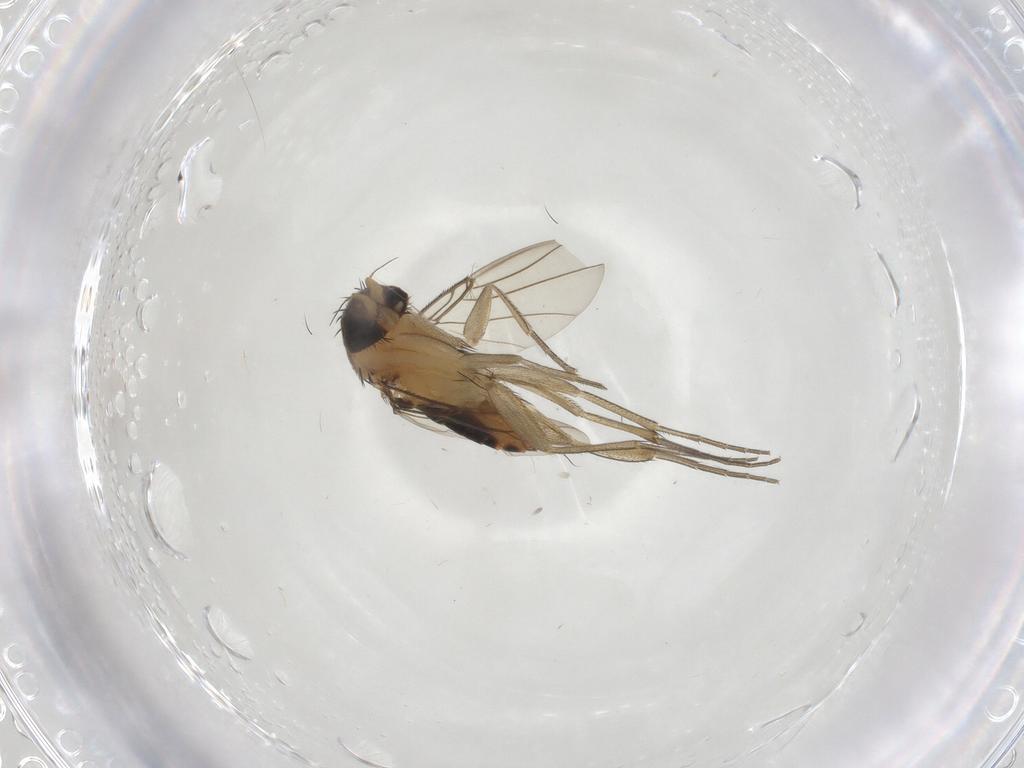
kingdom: Animalia
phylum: Arthropoda
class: Insecta
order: Diptera
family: Phoridae
